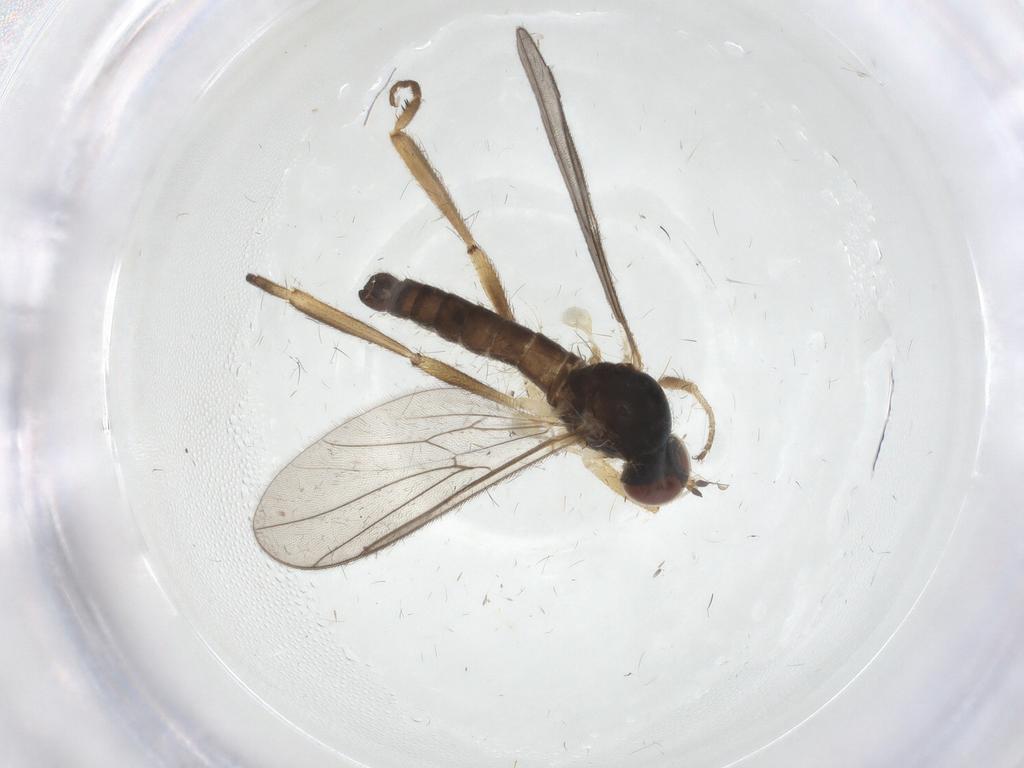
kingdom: Animalia
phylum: Arthropoda
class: Insecta
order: Diptera
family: Hybotidae
